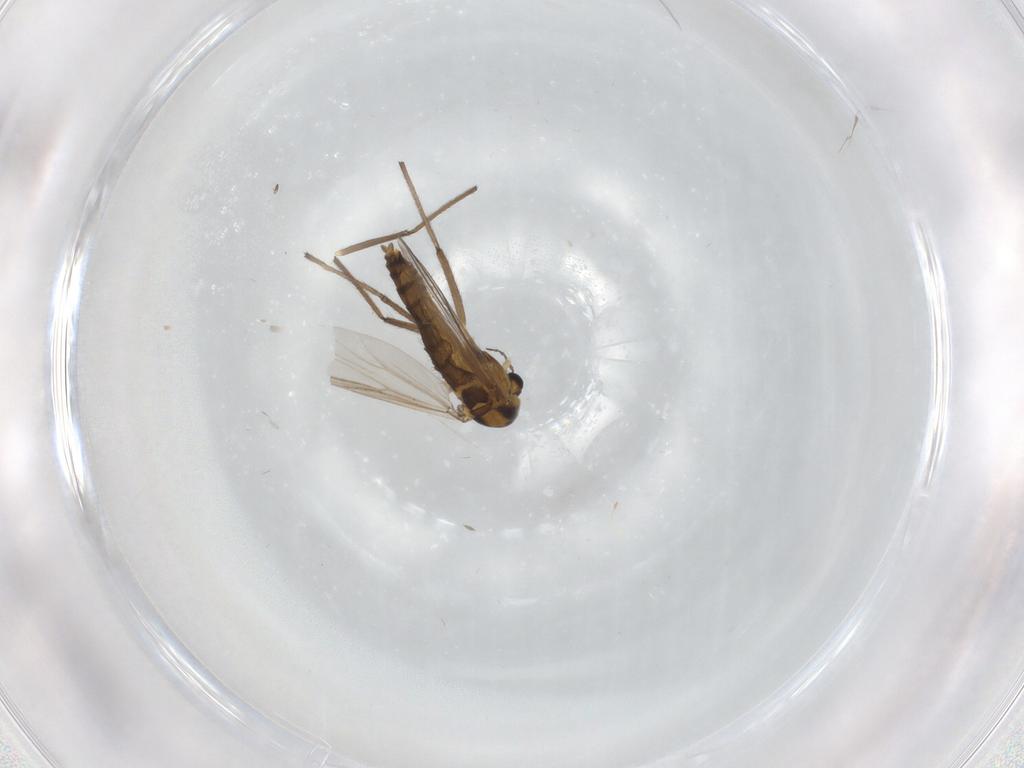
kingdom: Animalia
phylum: Arthropoda
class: Insecta
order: Diptera
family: Chironomidae
